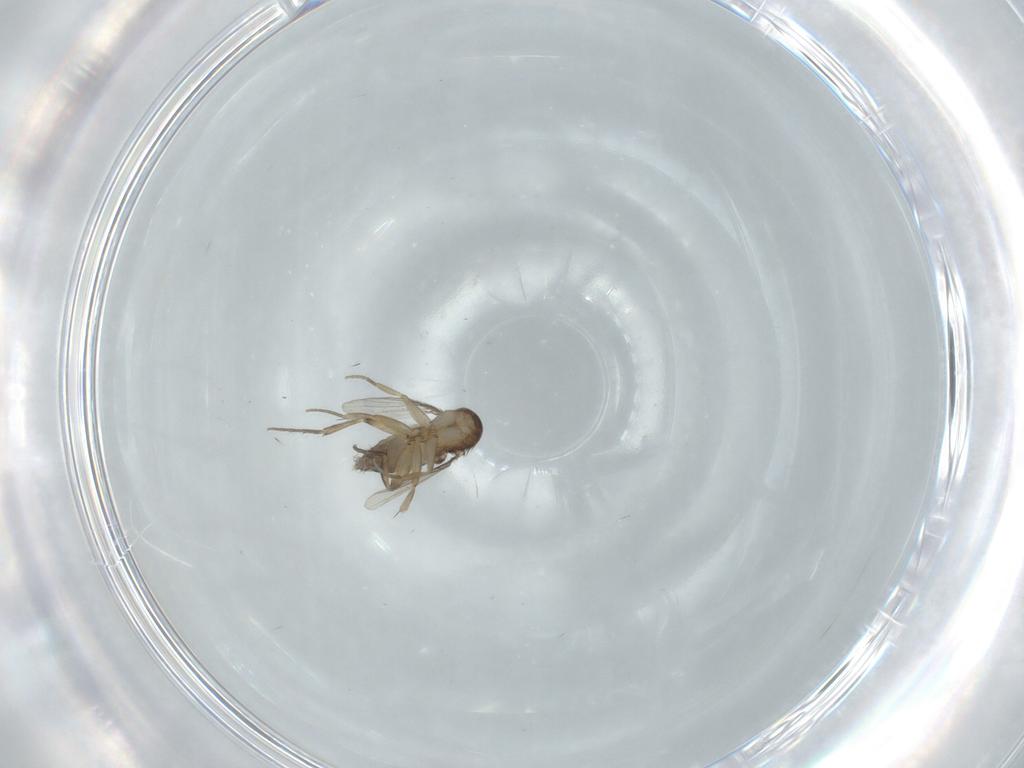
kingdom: Animalia
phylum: Arthropoda
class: Insecta
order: Diptera
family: Phoridae
